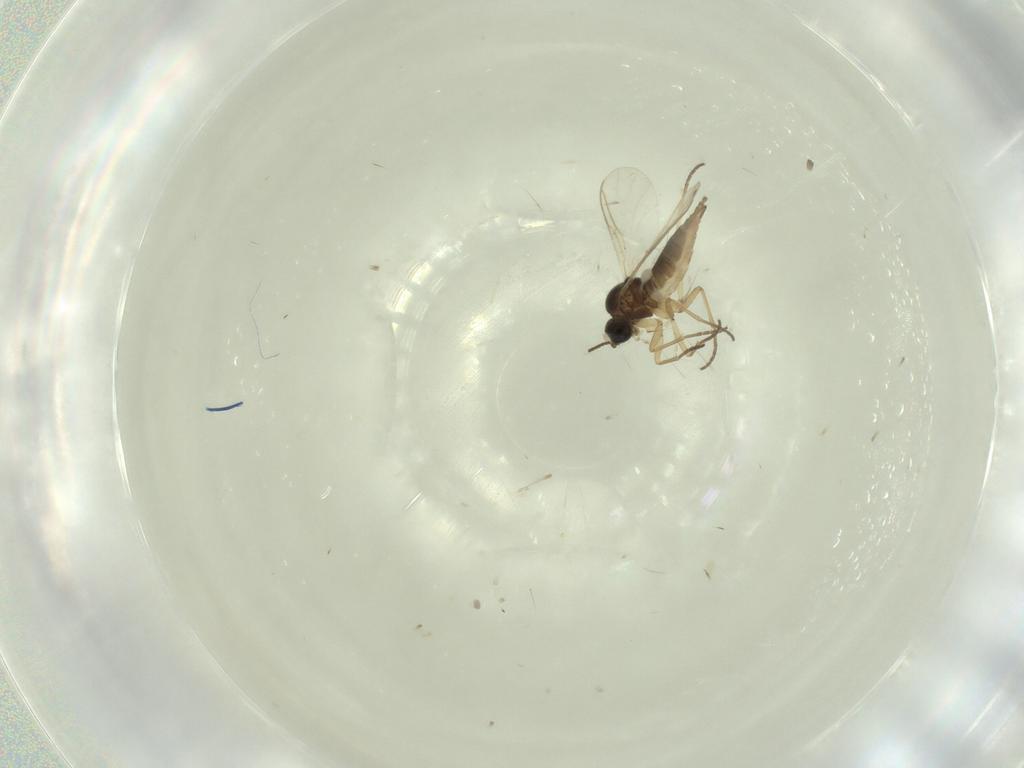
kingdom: Animalia
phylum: Arthropoda
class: Insecta
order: Diptera
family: Chloropidae
